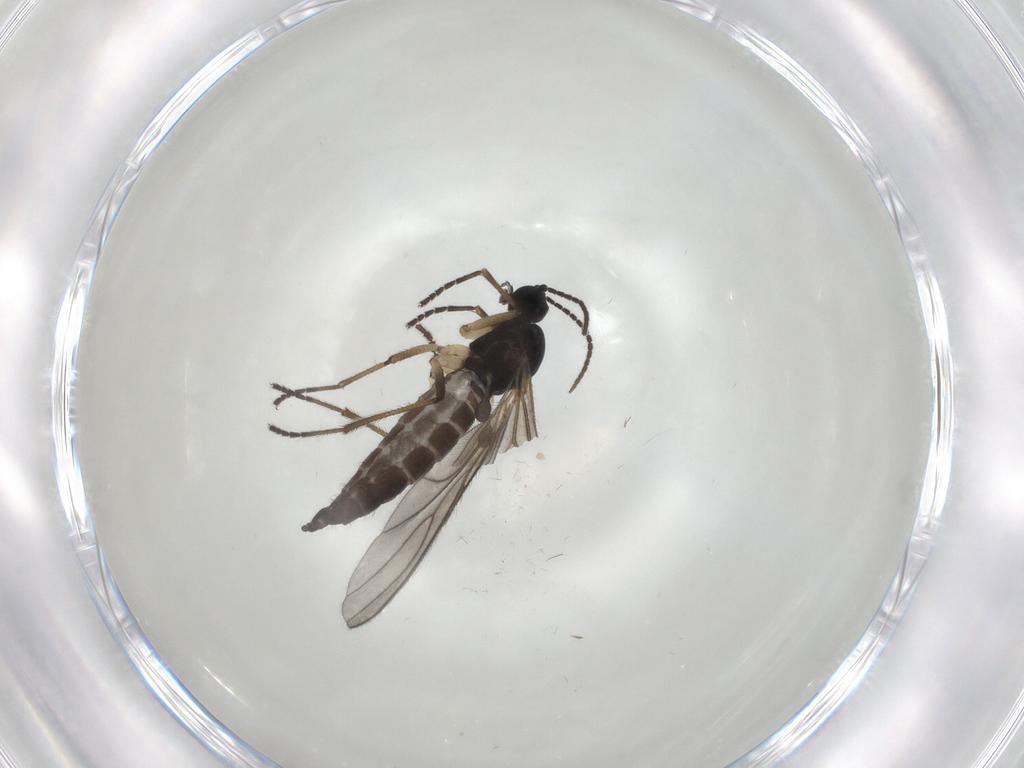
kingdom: Animalia
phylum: Arthropoda
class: Insecta
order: Diptera
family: Sciaridae
